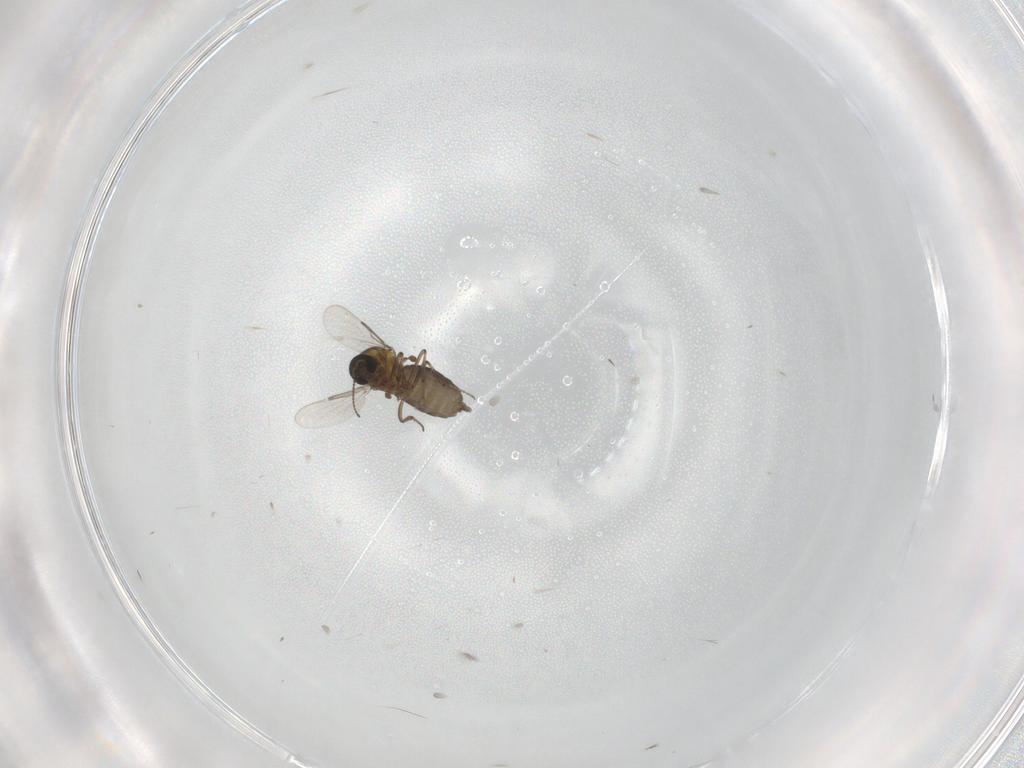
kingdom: Animalia
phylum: Arthropoda
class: Insecta
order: Diptera
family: Ceratopogonidae
